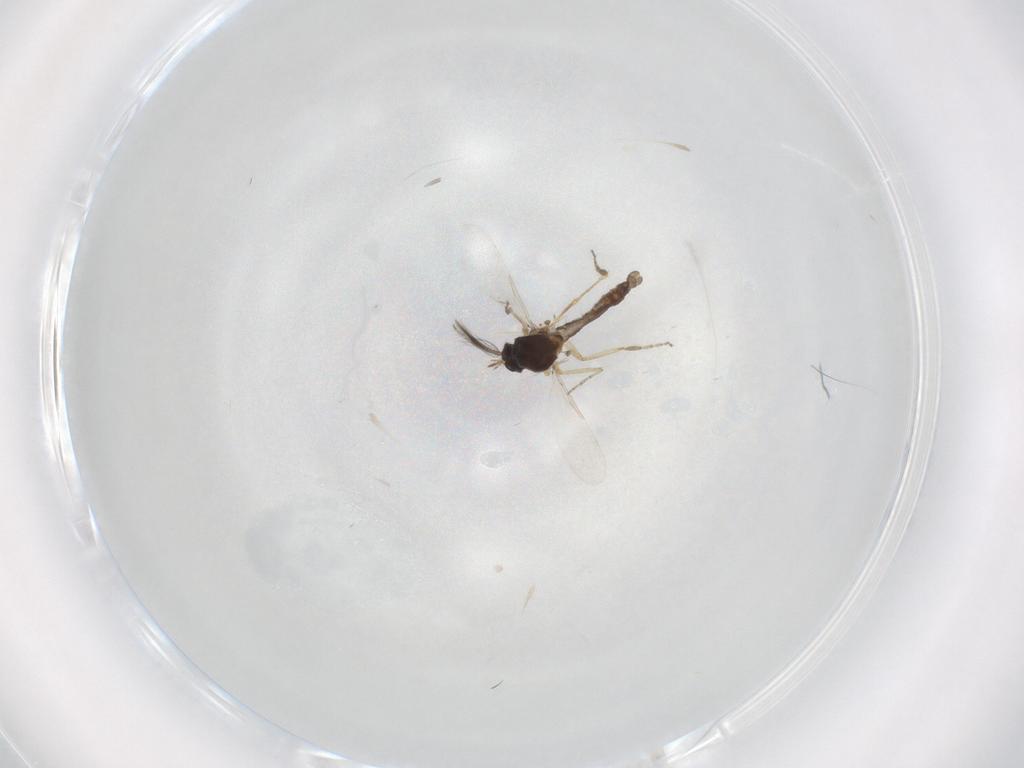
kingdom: Animalia
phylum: Arthropoda
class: Insecta
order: Diptera
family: Ceratopogonidae
